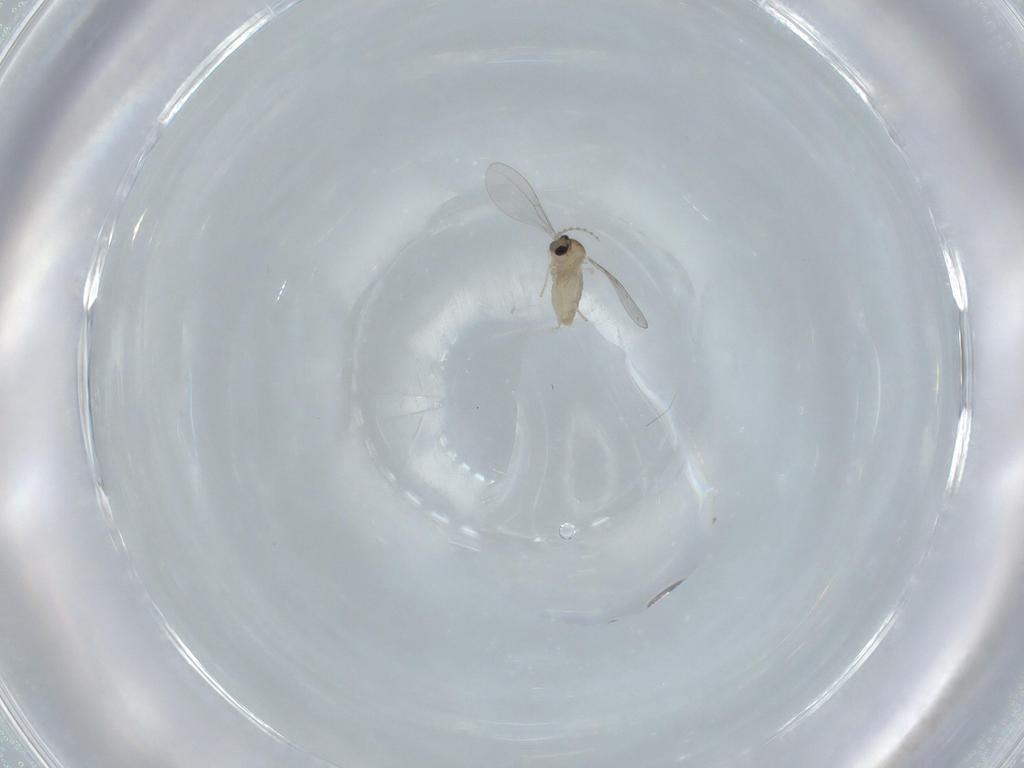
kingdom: Animalia
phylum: Arthropoda
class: Insecta
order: Diptera
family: Cecidomyiidae
